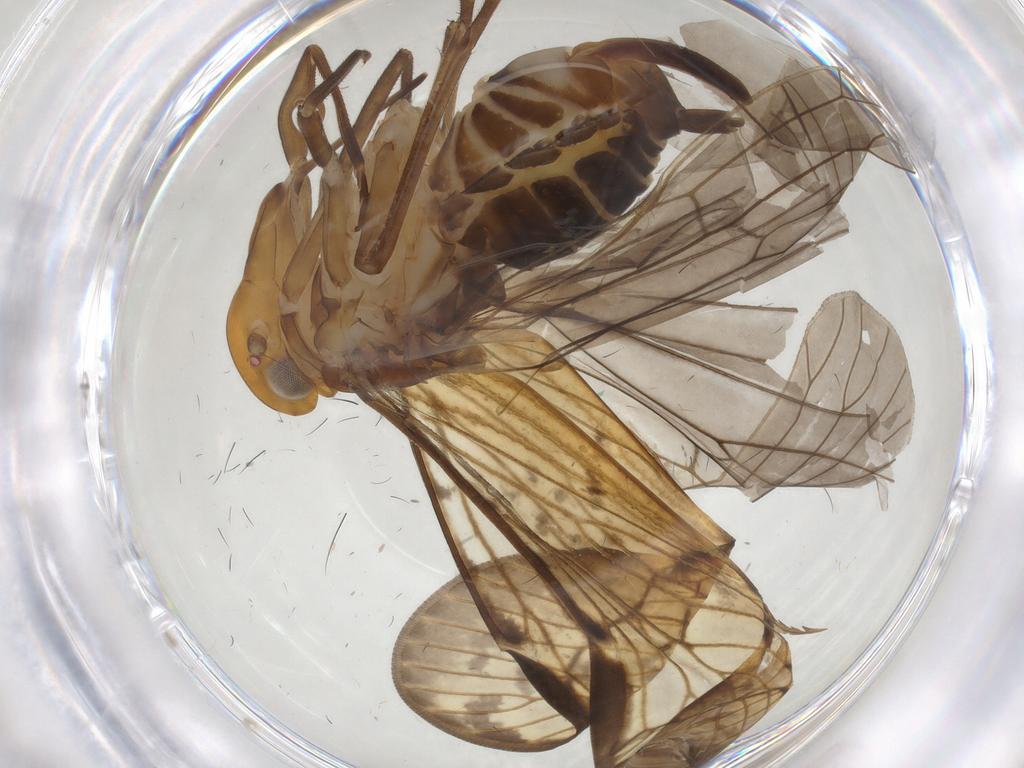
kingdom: Animalia
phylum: Arthropoda
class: Insecta
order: Hemiptera
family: Cixiidae
